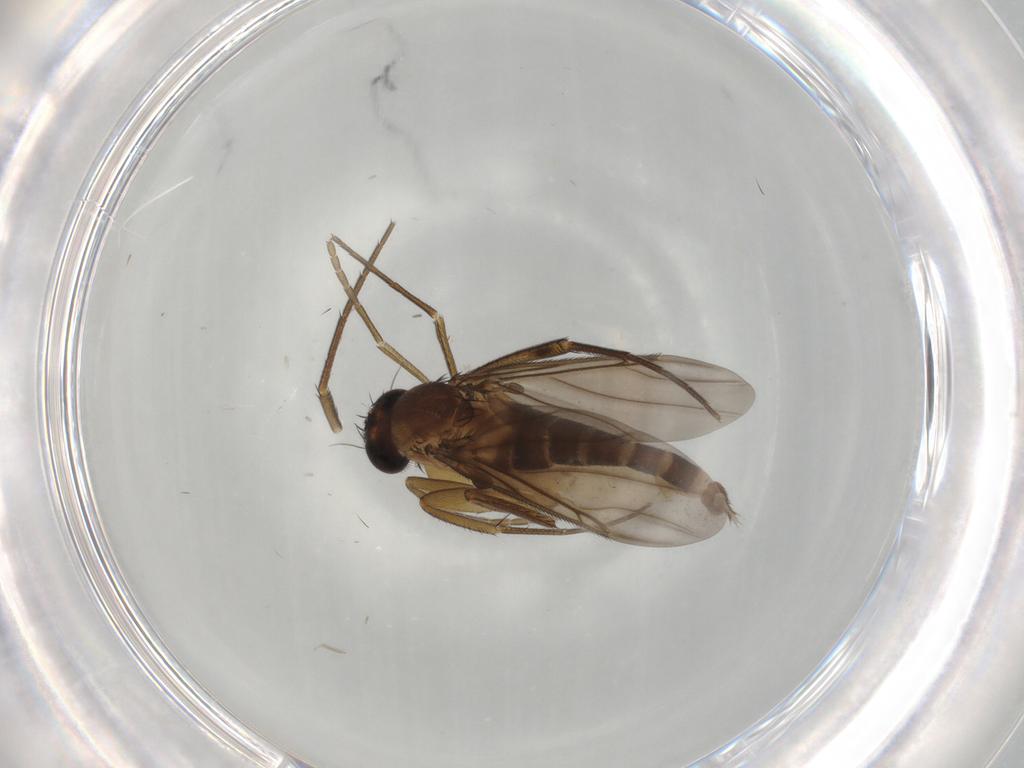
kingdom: Animalia
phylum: Arthropoda
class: Insecta
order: Diptera
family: Phoridae
